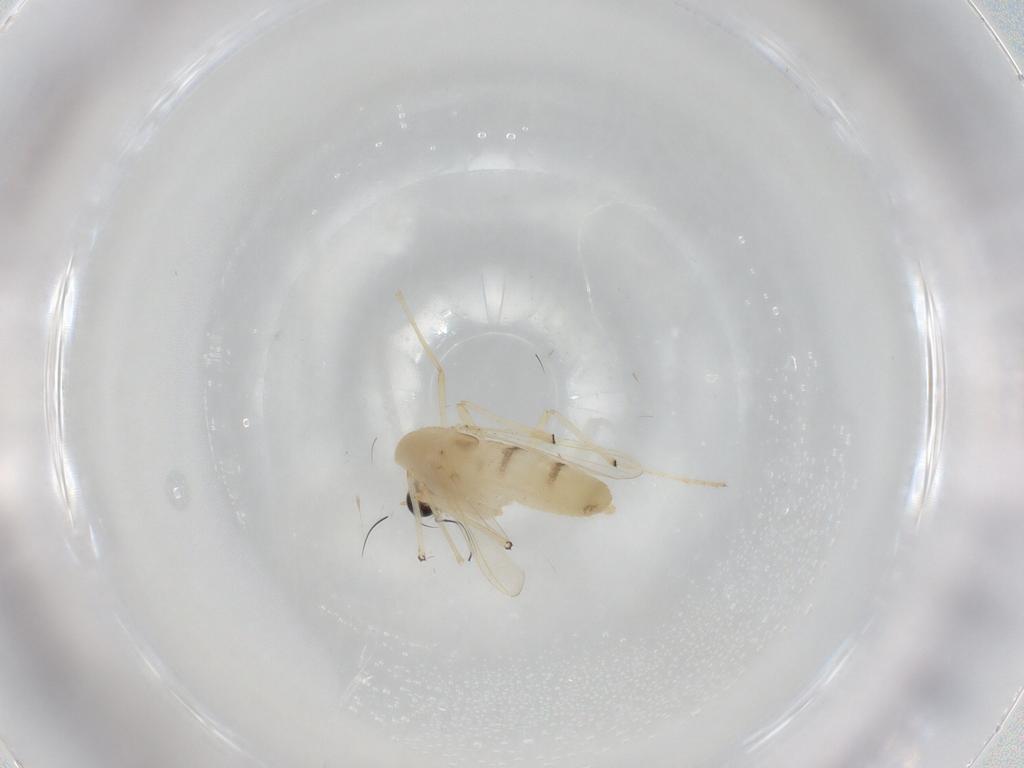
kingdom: Animalia
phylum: Arthropoda
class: Insecta
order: Diptera
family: Chironomidae
